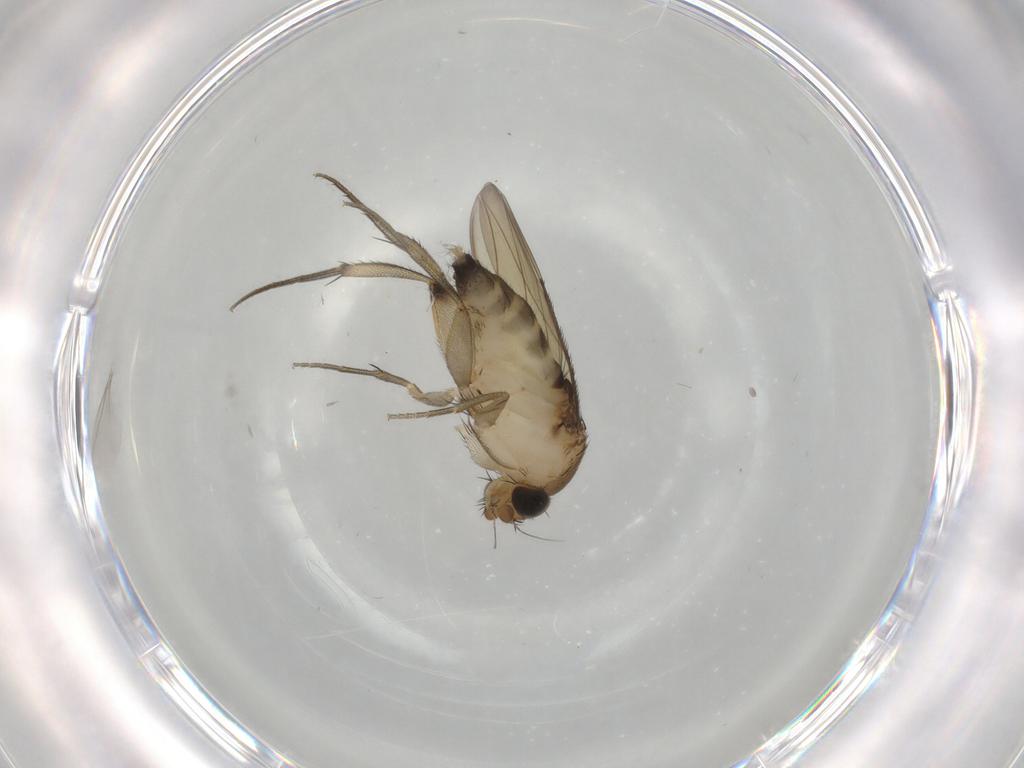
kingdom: Animalia
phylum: Arthropoda
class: Insecta
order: Diptera
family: Phoridae
